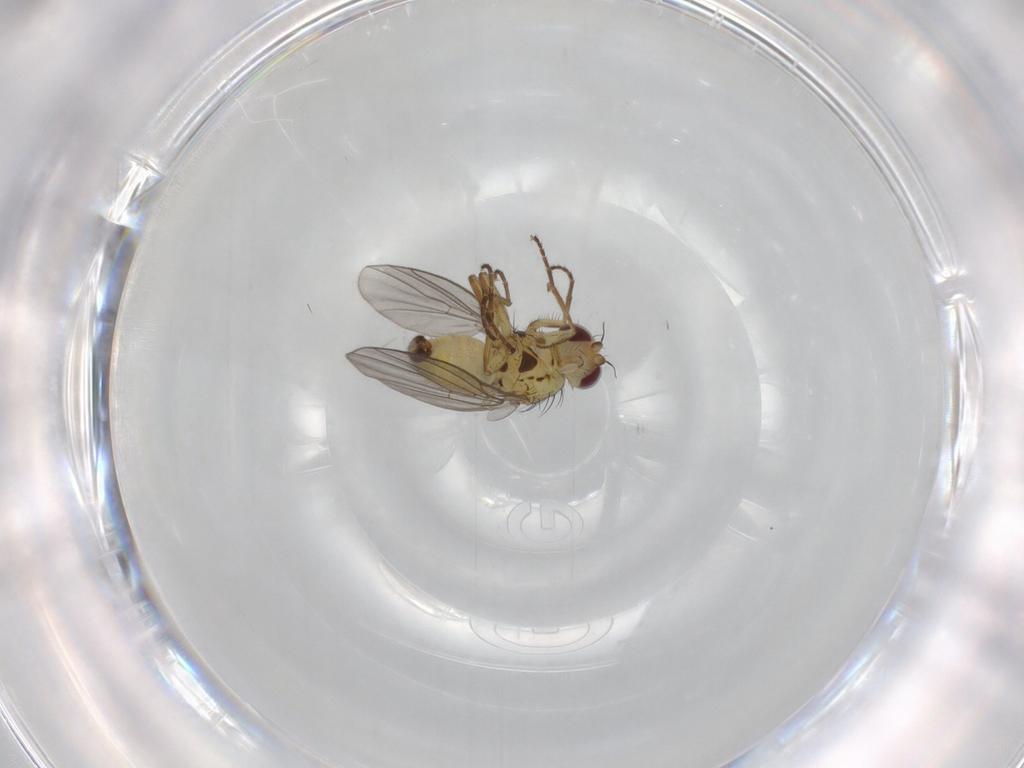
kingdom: Animalia
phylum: Arthropoda
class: Insecta
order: Diptera
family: Agromyzidae
